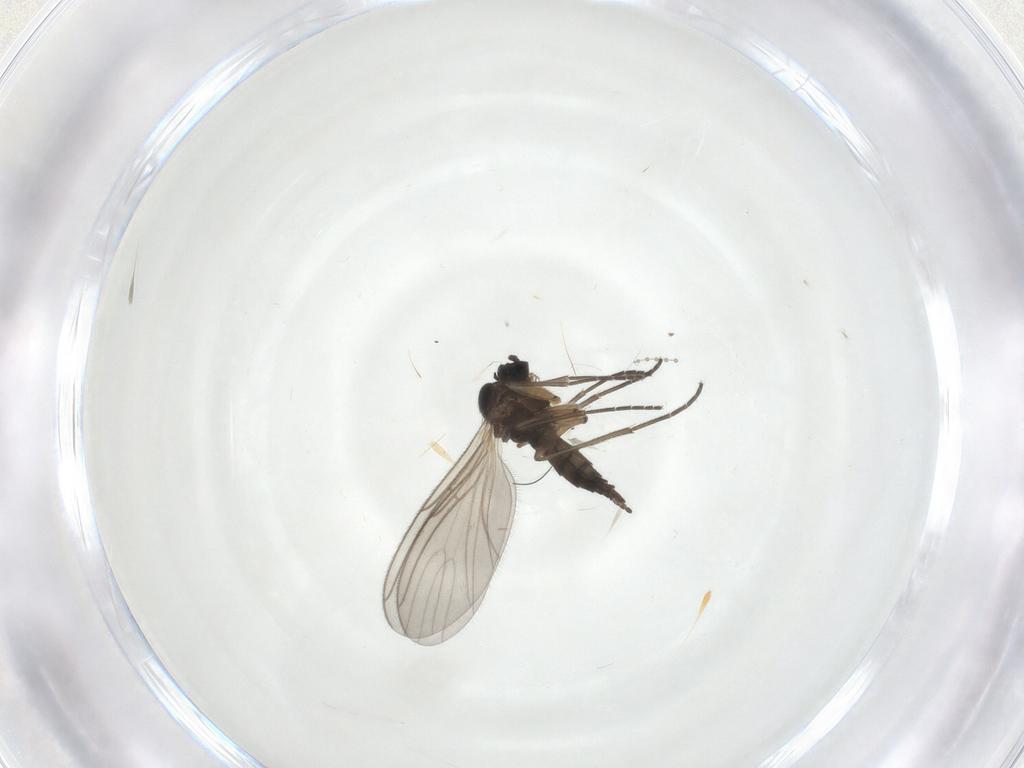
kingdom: Animalia
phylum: Arthropoda
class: Insecta
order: Diptera
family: Sciaridae
